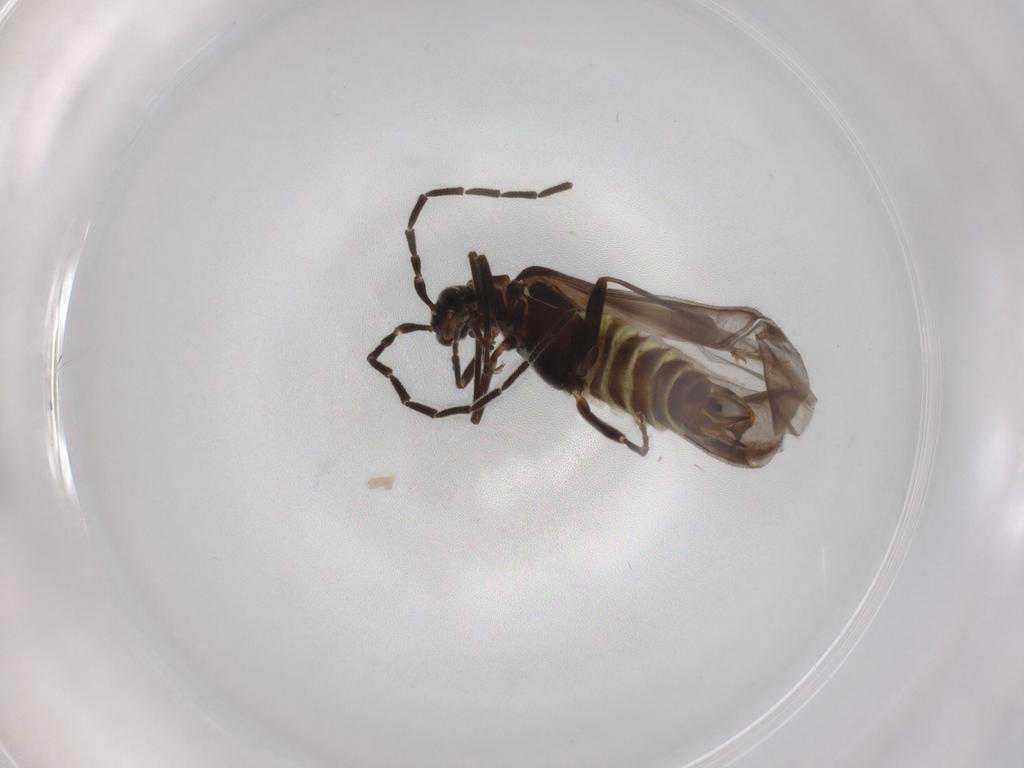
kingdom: Animalia
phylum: Arthropoda
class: Insecta
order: Coleoptera
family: Cantharidae
